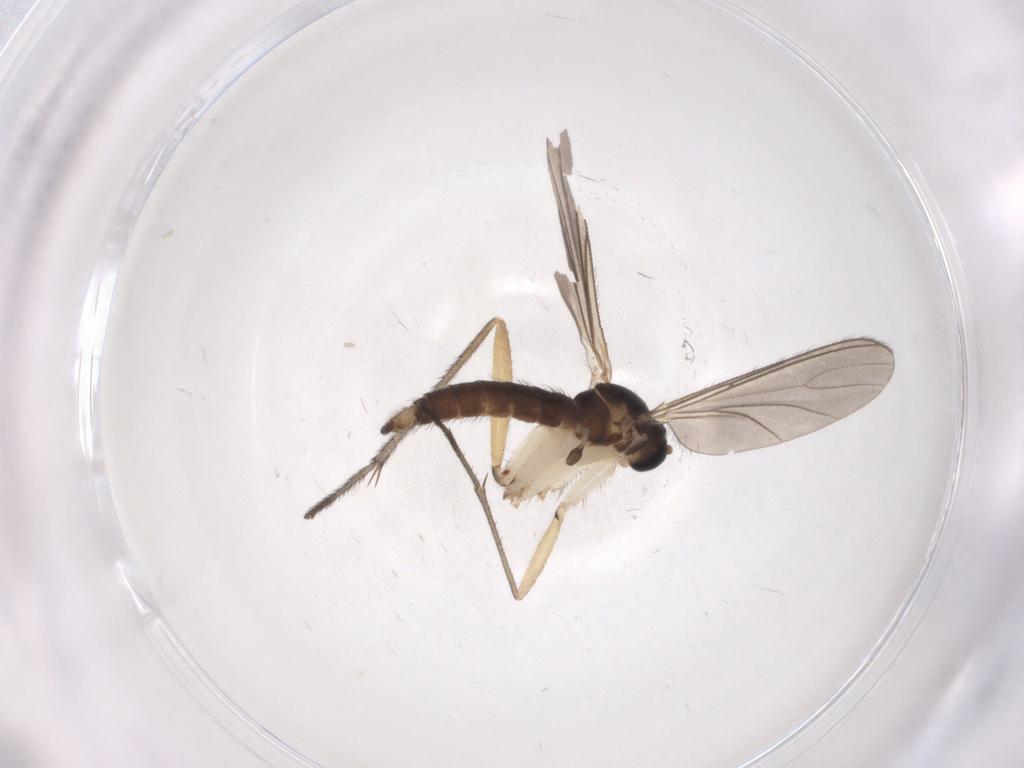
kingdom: Animalia
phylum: Arthropoda
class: Insecta
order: Diptera
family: Sciaridae
